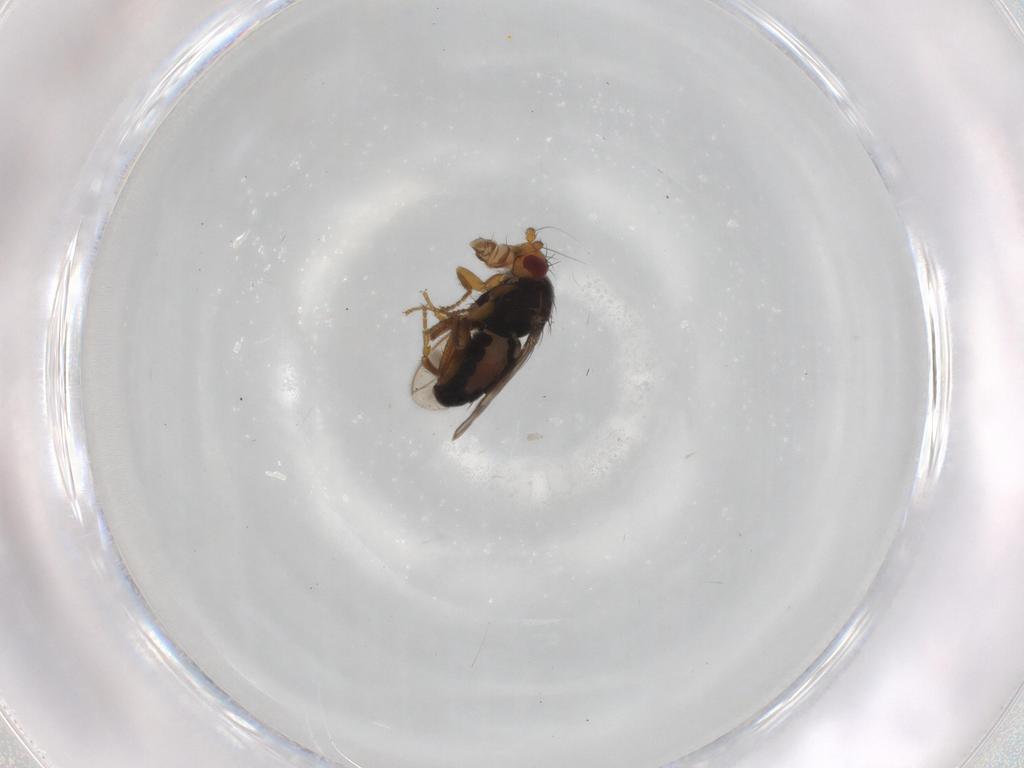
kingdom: Animalia
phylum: Arthropoda
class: Insecta
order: Diptera
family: Sphaeroceridae
